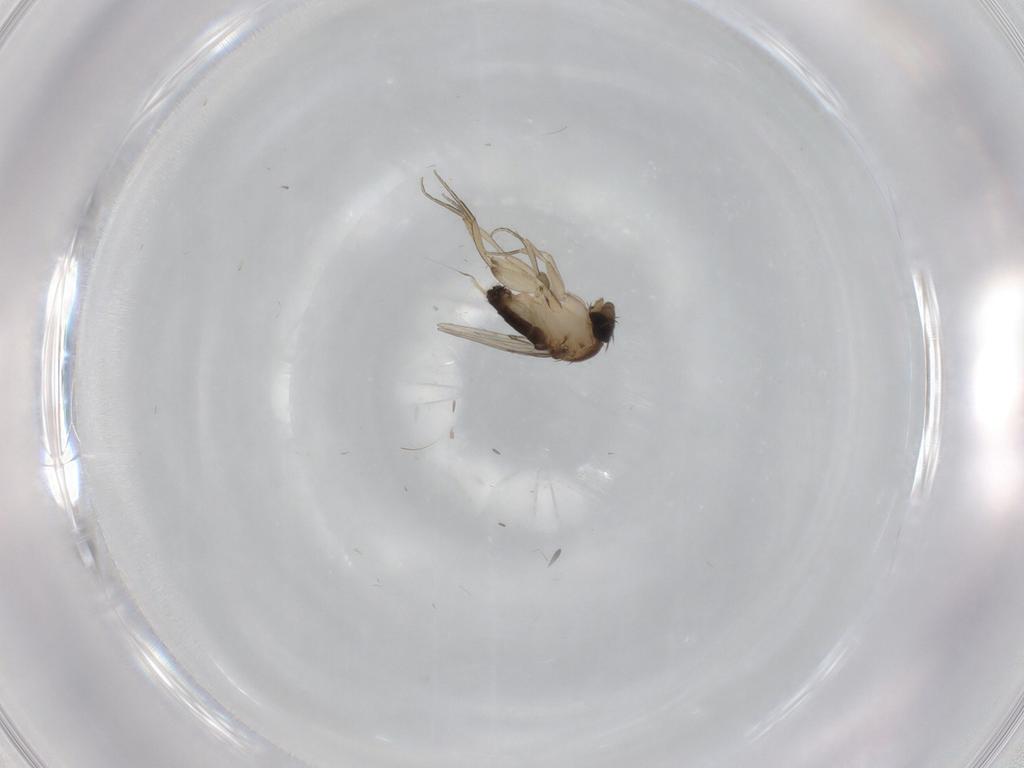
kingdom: Animalia
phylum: Arthropoda
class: Insecta
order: Diptera
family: Phoridae
